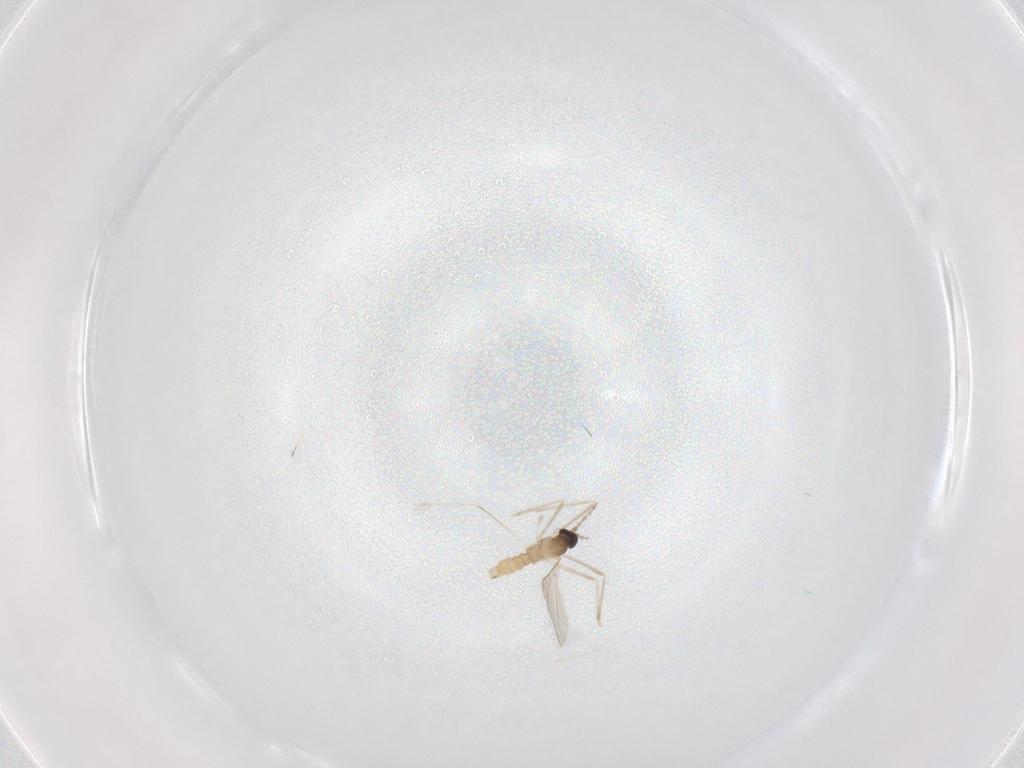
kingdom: Animalia
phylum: Arthropoda
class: Insecta
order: Diptera
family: Cecidomyiidae
